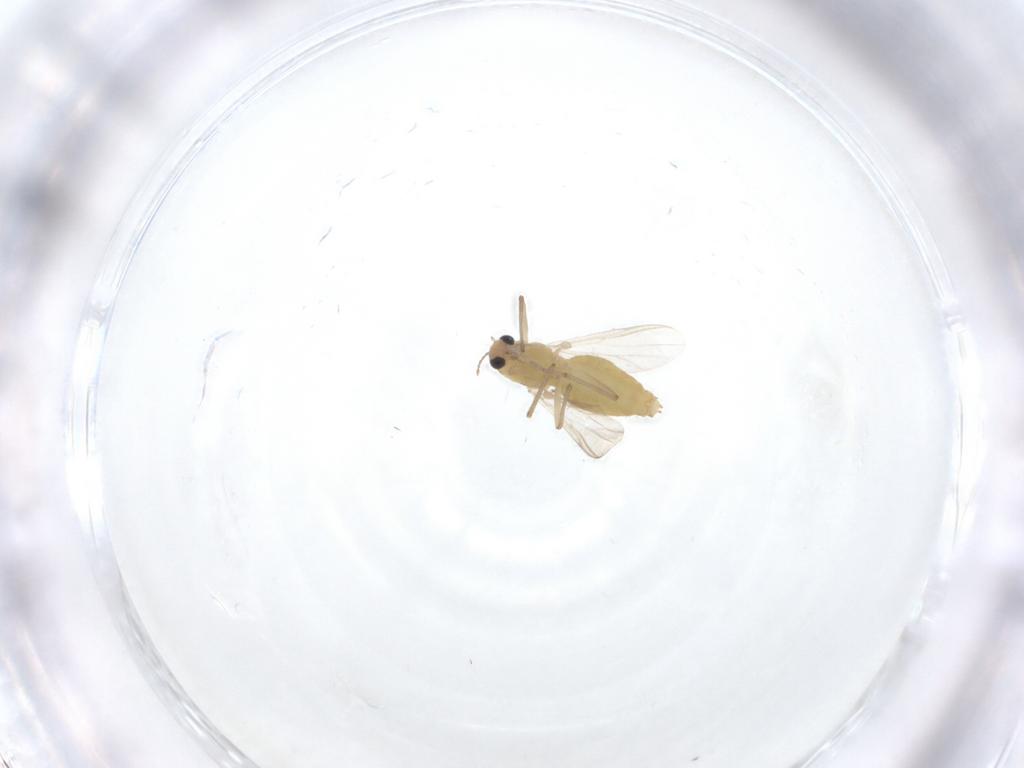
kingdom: Animalia
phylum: Arthropoda
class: Insecta
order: Diptera
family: Chironomidae
